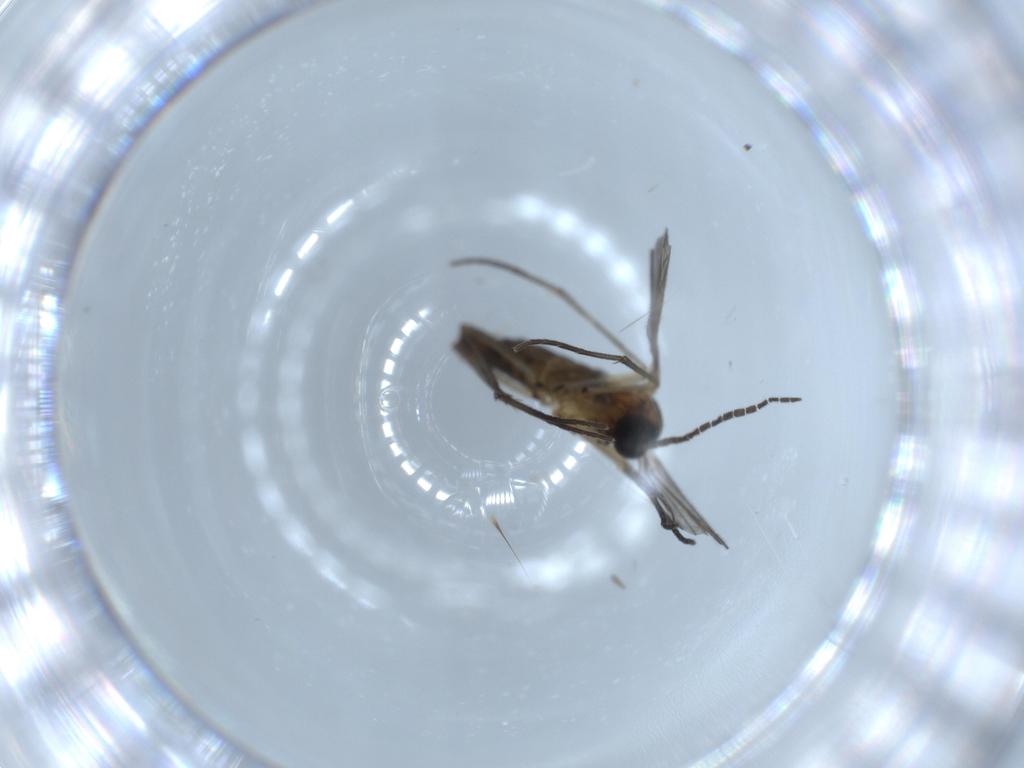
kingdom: Animalia
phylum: Arthropoda
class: Insecta
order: Diptera
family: Sciaridae
